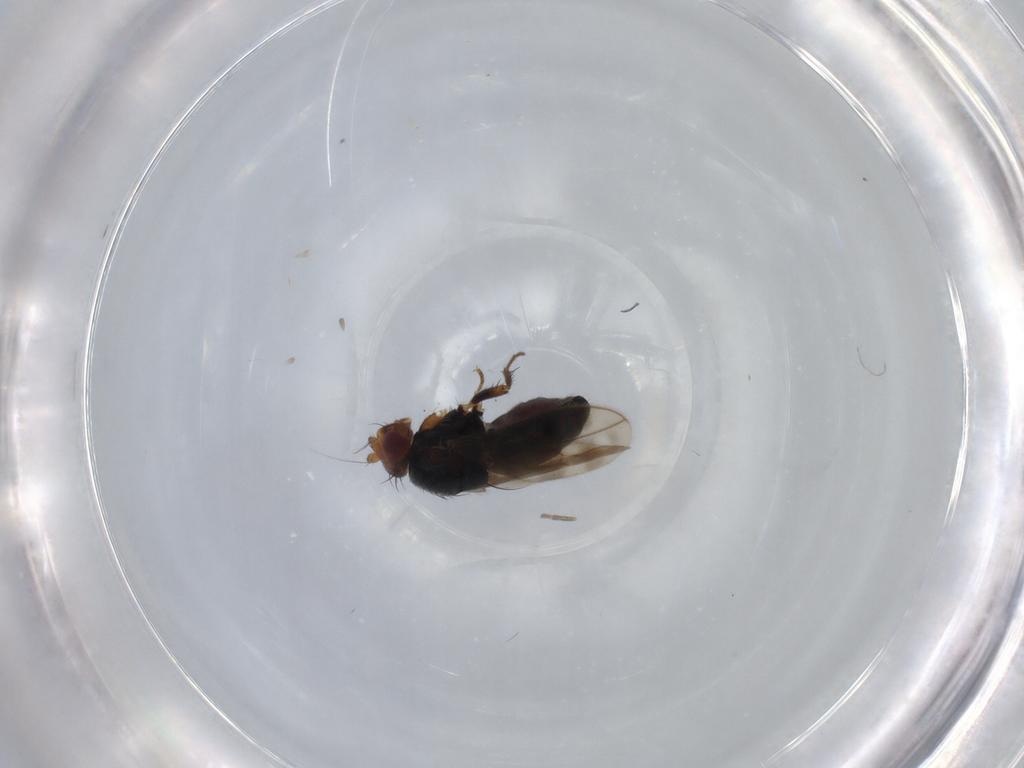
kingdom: Animalia
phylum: Arthropoda
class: Insecta
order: Diptera
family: Sphaeroceridae
